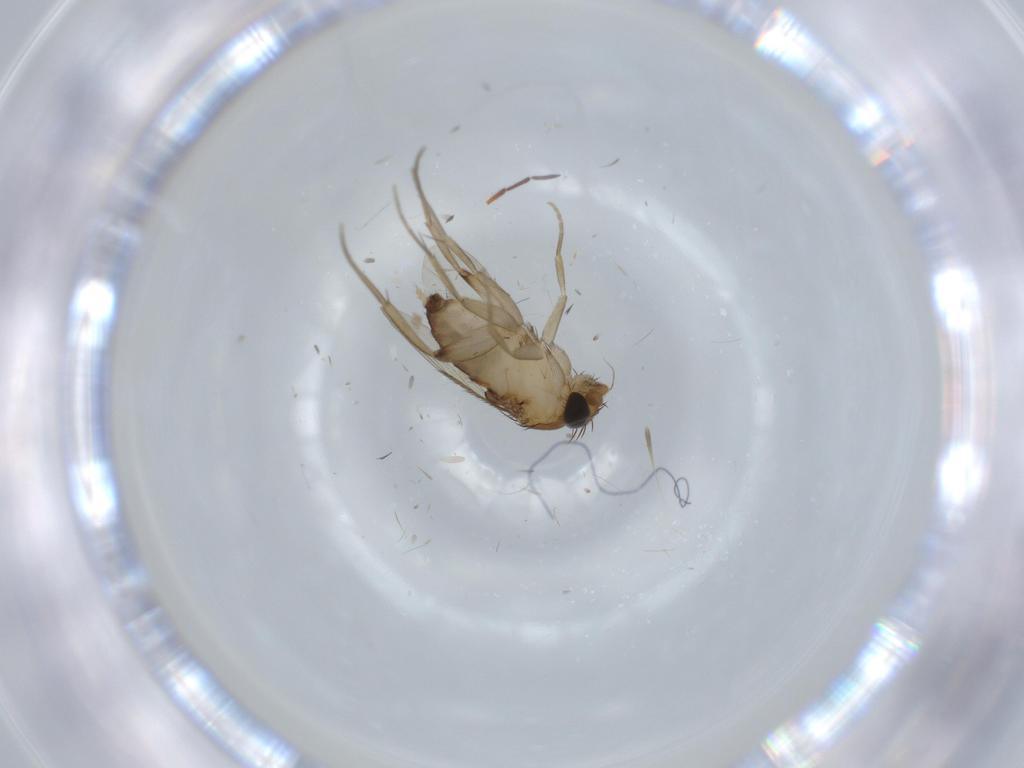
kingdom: Animalia
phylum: Arthropoda
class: Insecta
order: Diptera
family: Phoridae
